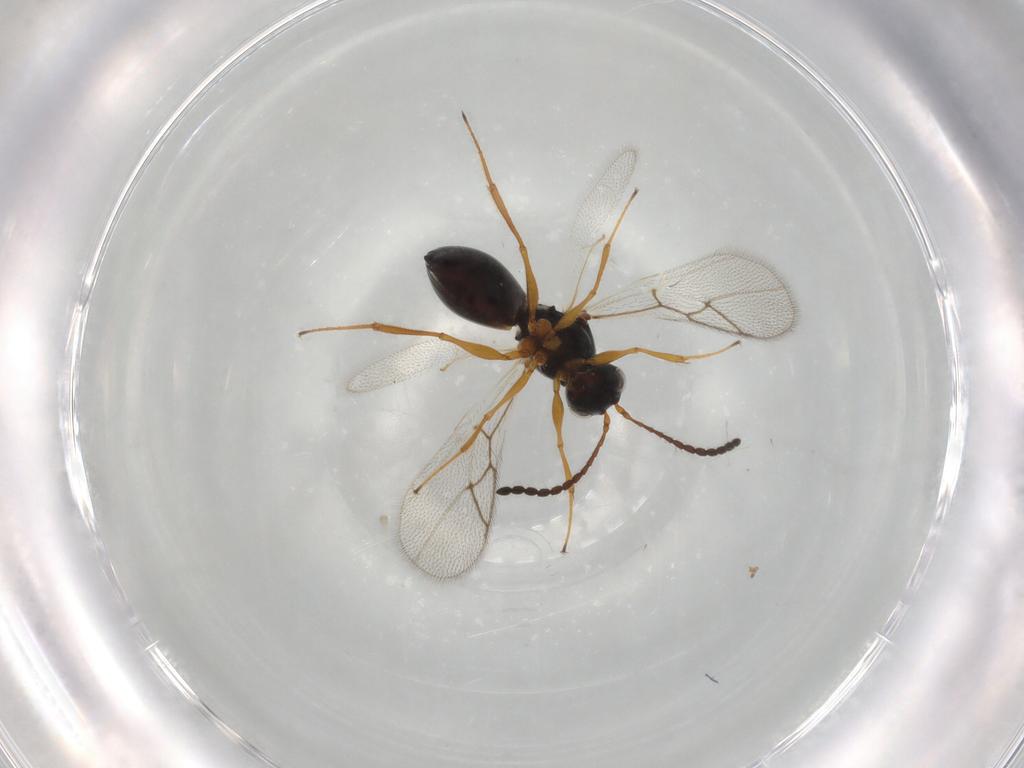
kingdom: Animalia
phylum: Arthropoda
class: Insecta
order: Hymenoptera
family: Figitidae
